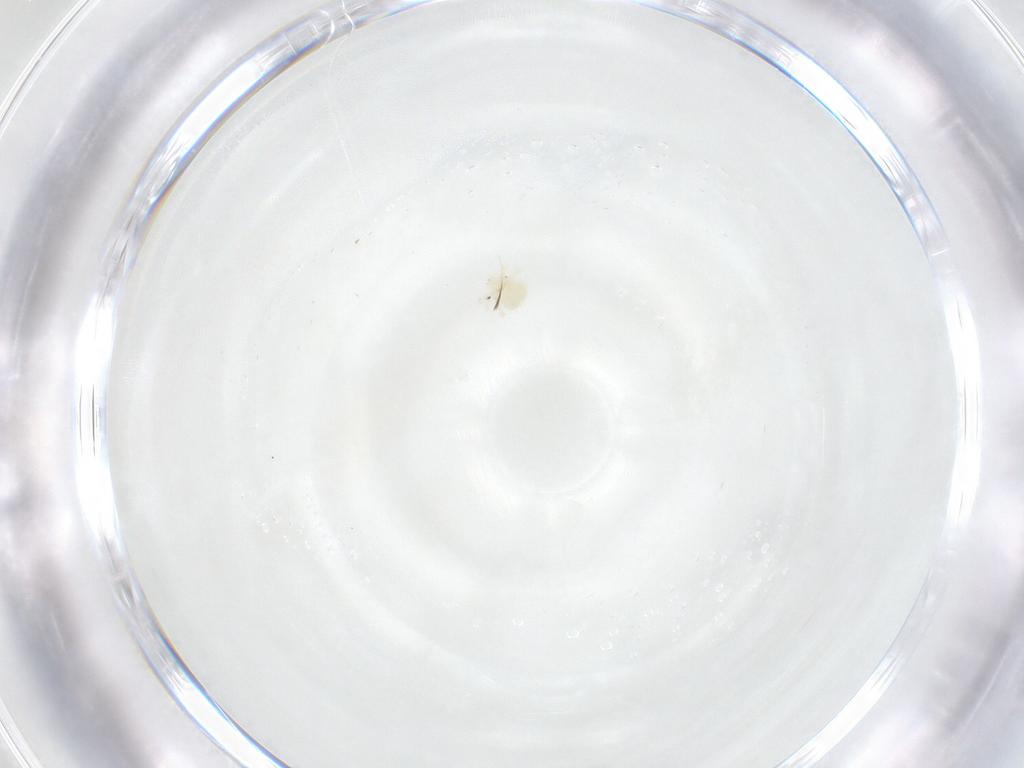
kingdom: Animalia
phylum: Arthropoda
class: Arachnida
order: Trombidiformes
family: Anystidae
